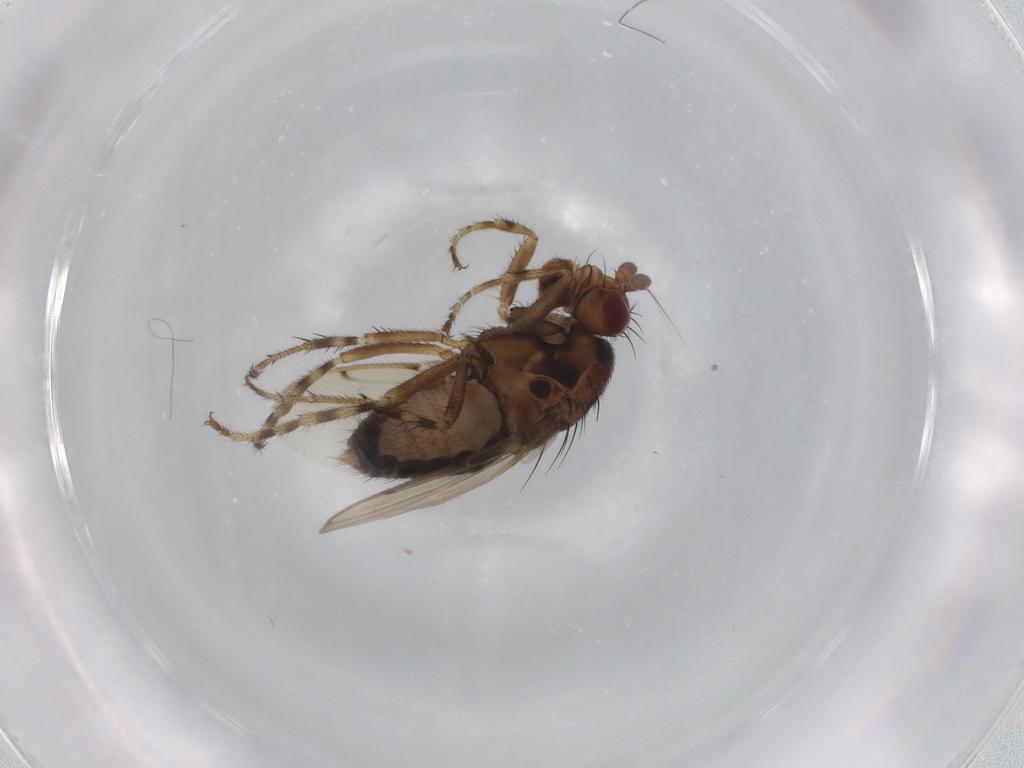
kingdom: Animalia
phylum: Arthropoda
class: Insecta
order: Diptera
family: Sphaeroceridae
